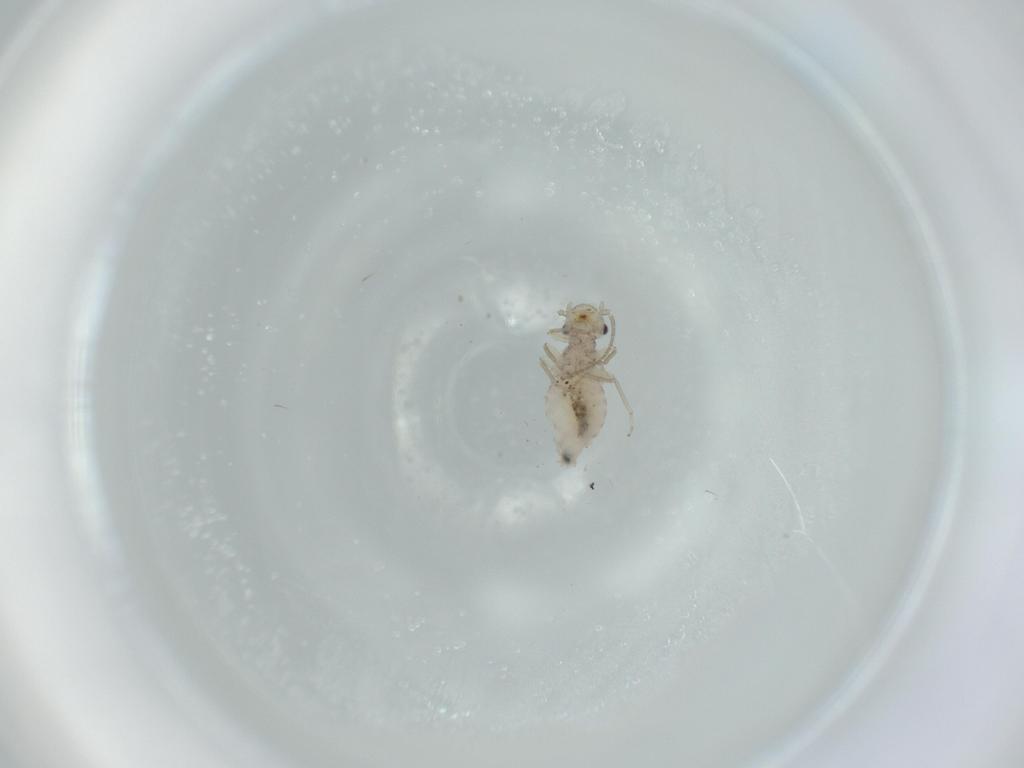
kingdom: Animalia
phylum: Arthropoda
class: Insecta
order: Psocodea
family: Caeciliusidae
